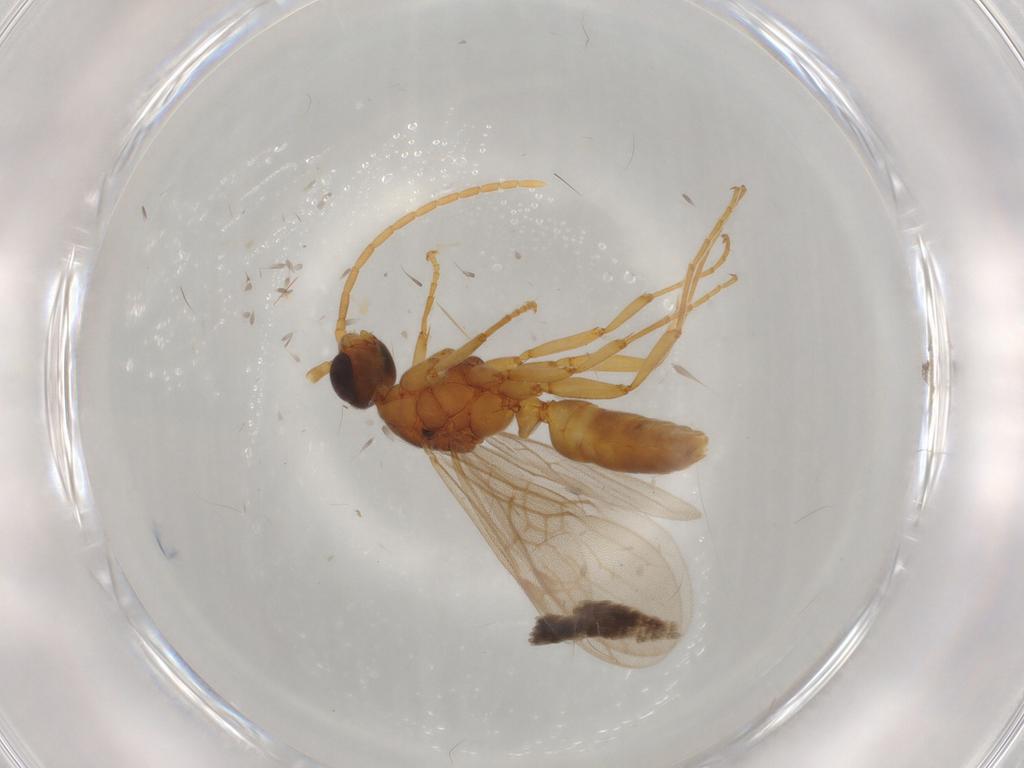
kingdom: Animalia
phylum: Arthropoda
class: Insecta
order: Hymenoptera
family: Formicidae
